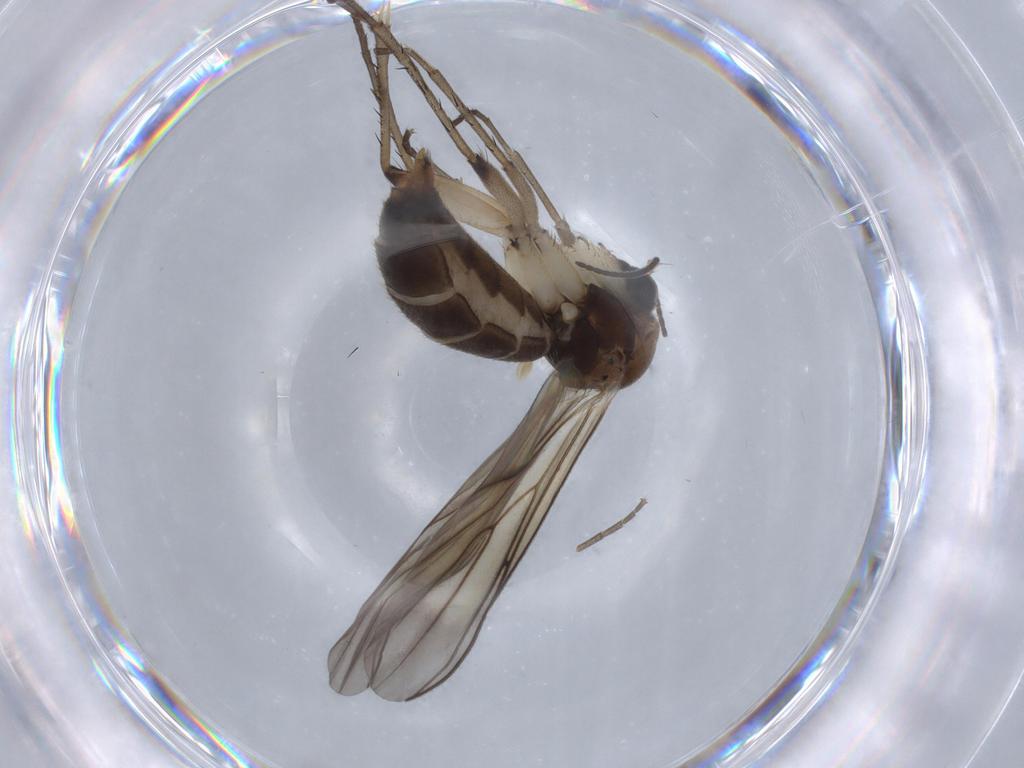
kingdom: Animalia
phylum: Arthropoda
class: Insecta
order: Diptera
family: Mycetophilidae
